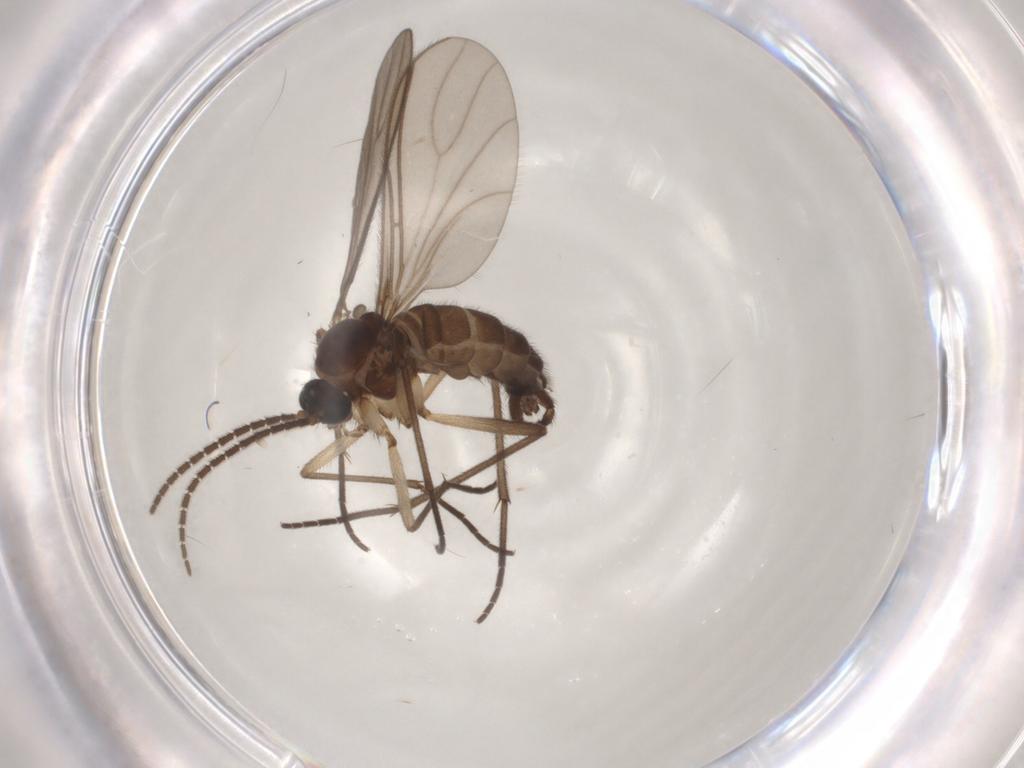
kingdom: Animalia
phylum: Arthropoda
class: Insecta
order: Diptera
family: Sciaridae
